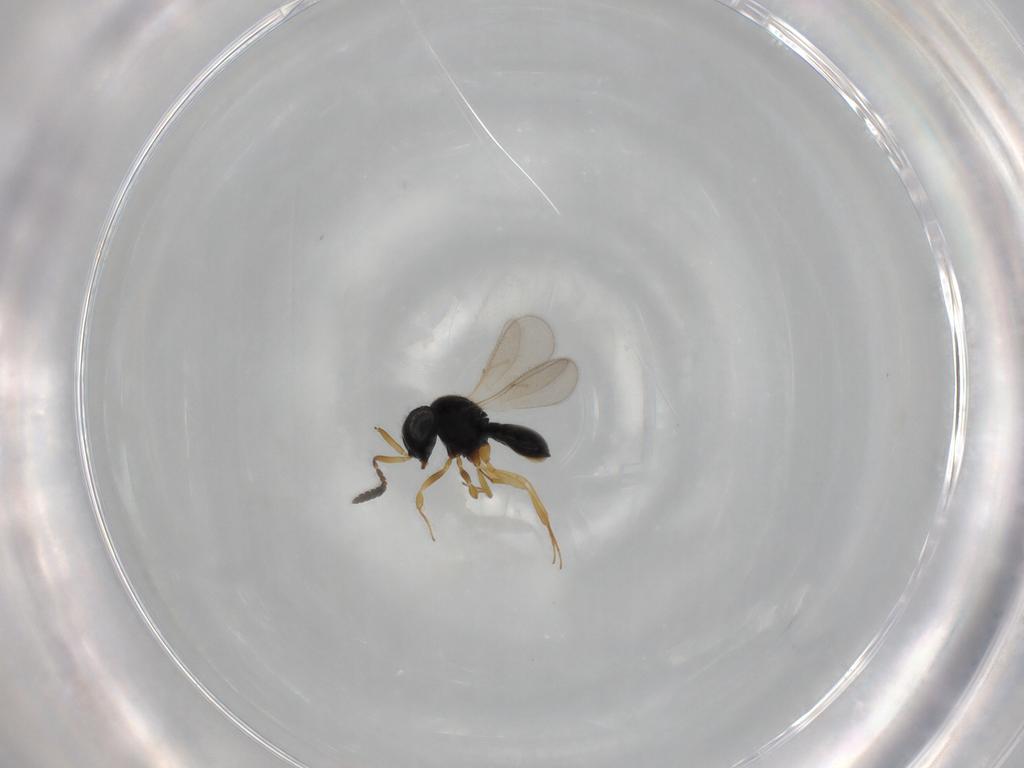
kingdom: Animalia
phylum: Arthropoda
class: Insecta
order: Hymenoptera
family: Scelionidae
